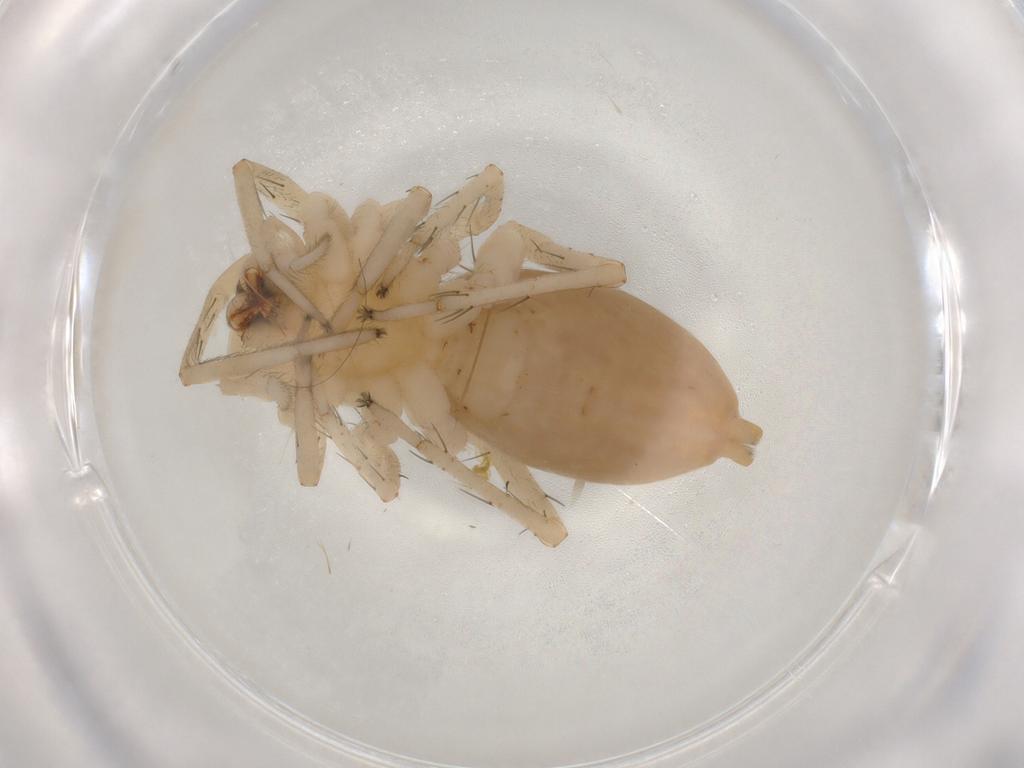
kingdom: Animalia
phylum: Arthropoda
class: Arachnida
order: Araneae
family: Anyphaenidae
